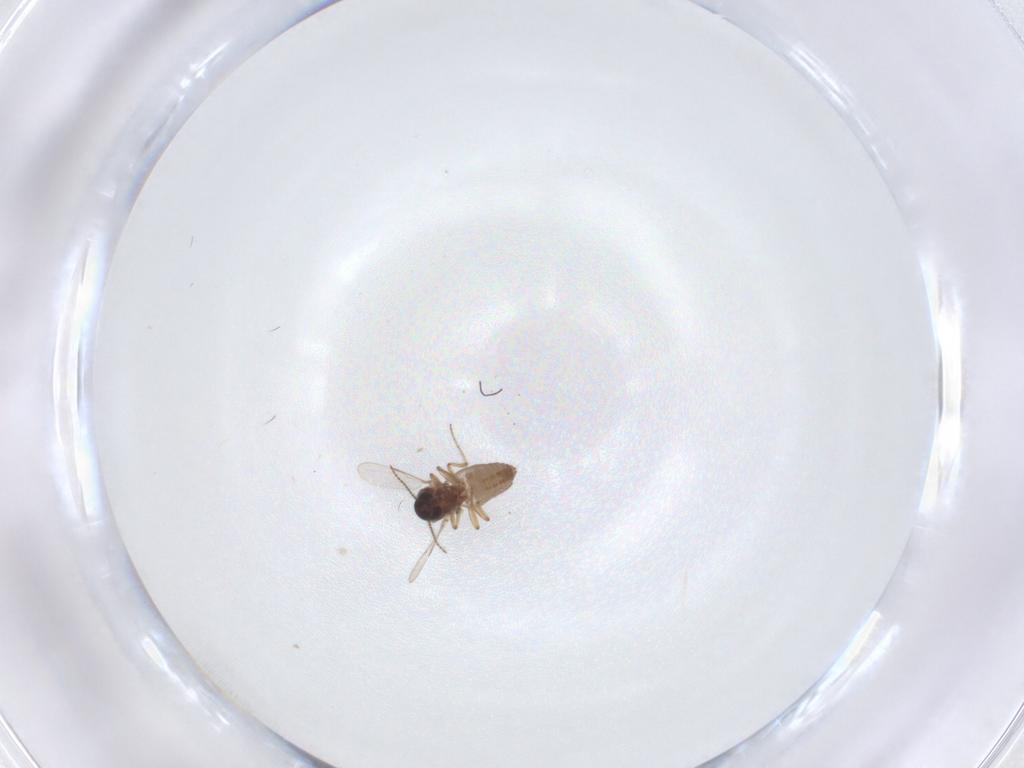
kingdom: Animalia
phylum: Arthropoda
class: Insecta
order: Diptera
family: Ceratopogonidae
